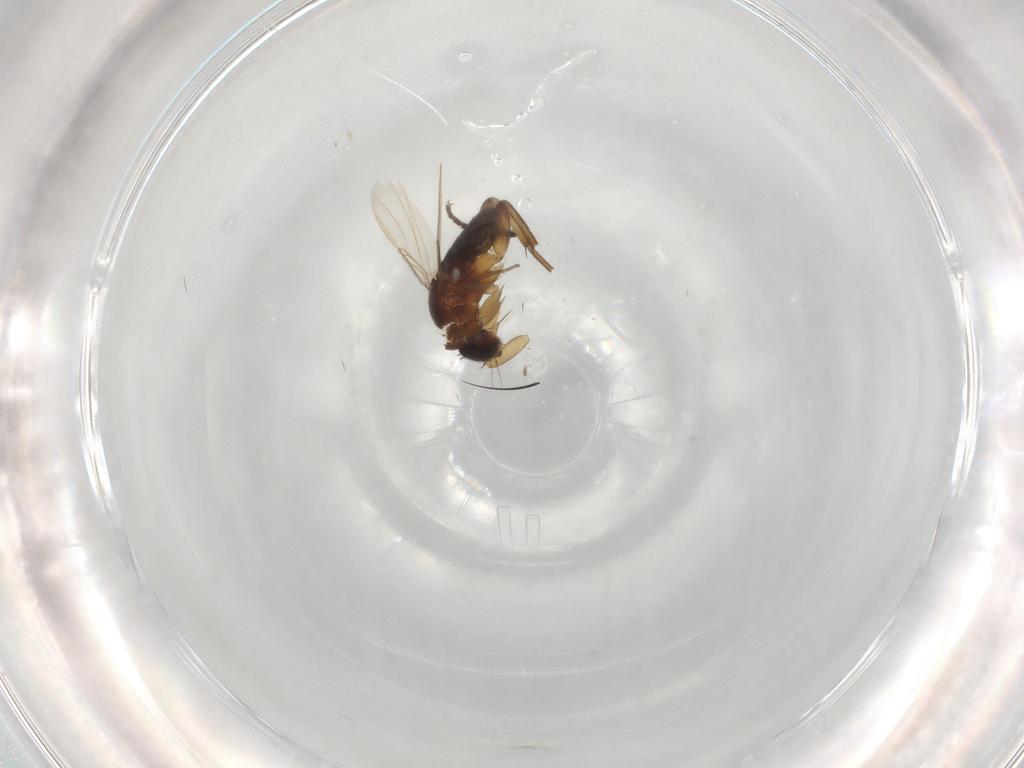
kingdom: Animalia
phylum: Arthropoda
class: Insecta
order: Diptera
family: Phoridae
